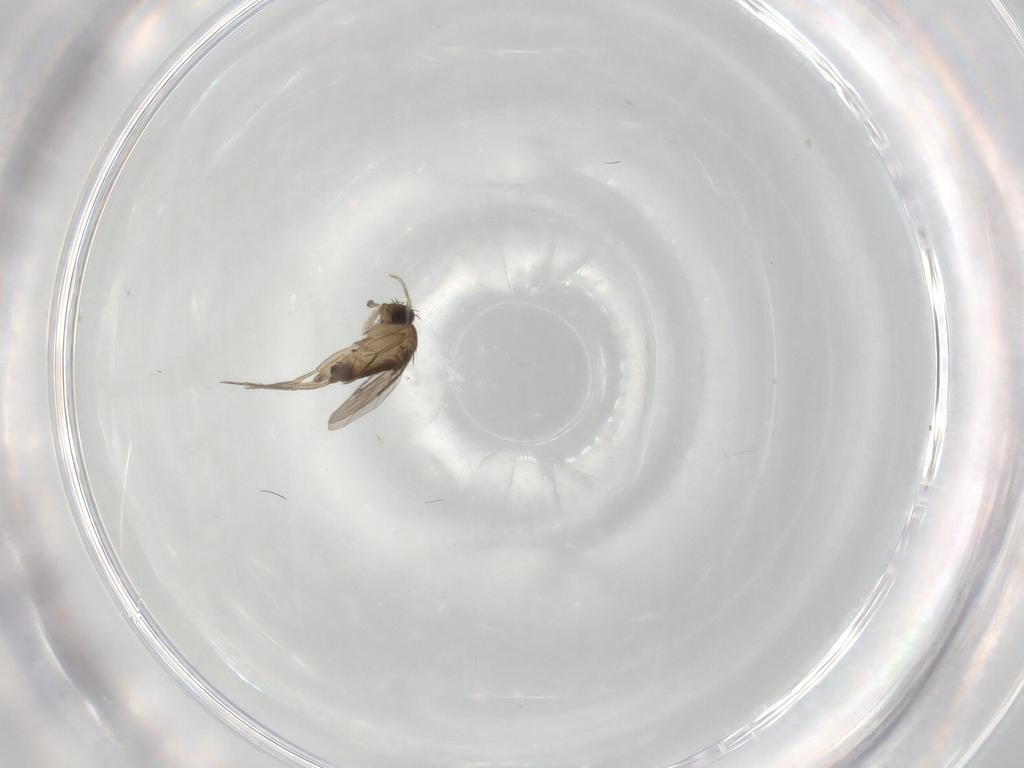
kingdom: Animalia
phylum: Arthropoda
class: Insecta
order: Diptera
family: Phoridae
